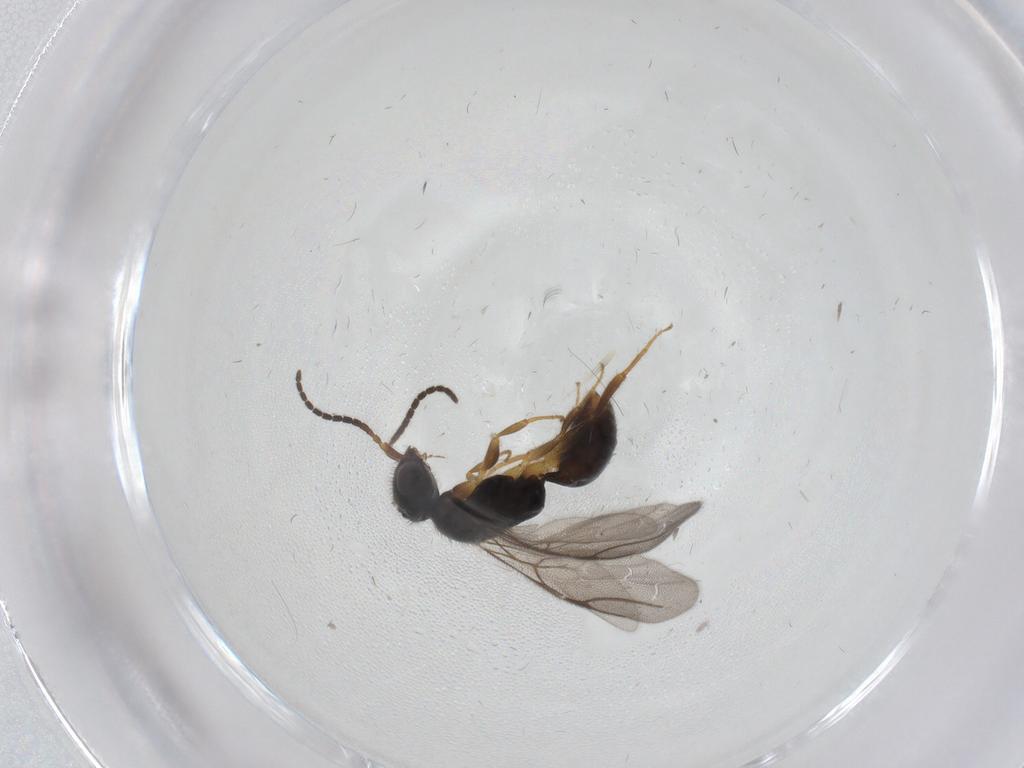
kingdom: Animalia
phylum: Arthropoda
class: Insecta
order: Hymenoptera
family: Bethylidae
